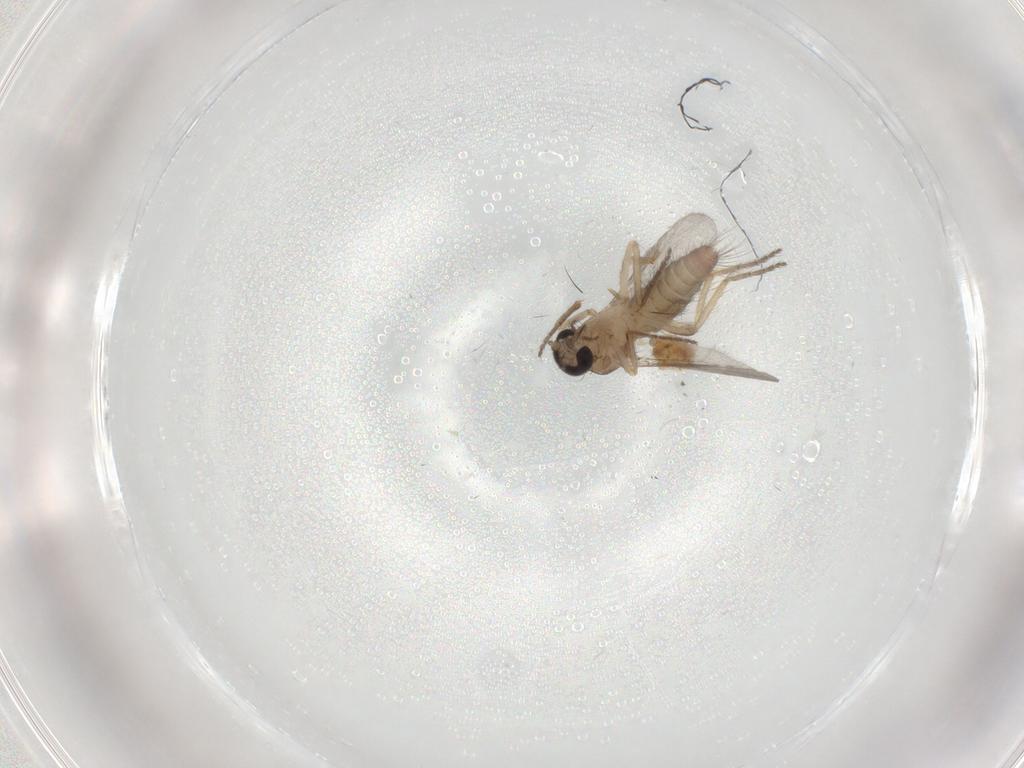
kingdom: Animalia
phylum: Arthropoda
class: Insecta
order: Diptera
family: Ceratopogonidae
